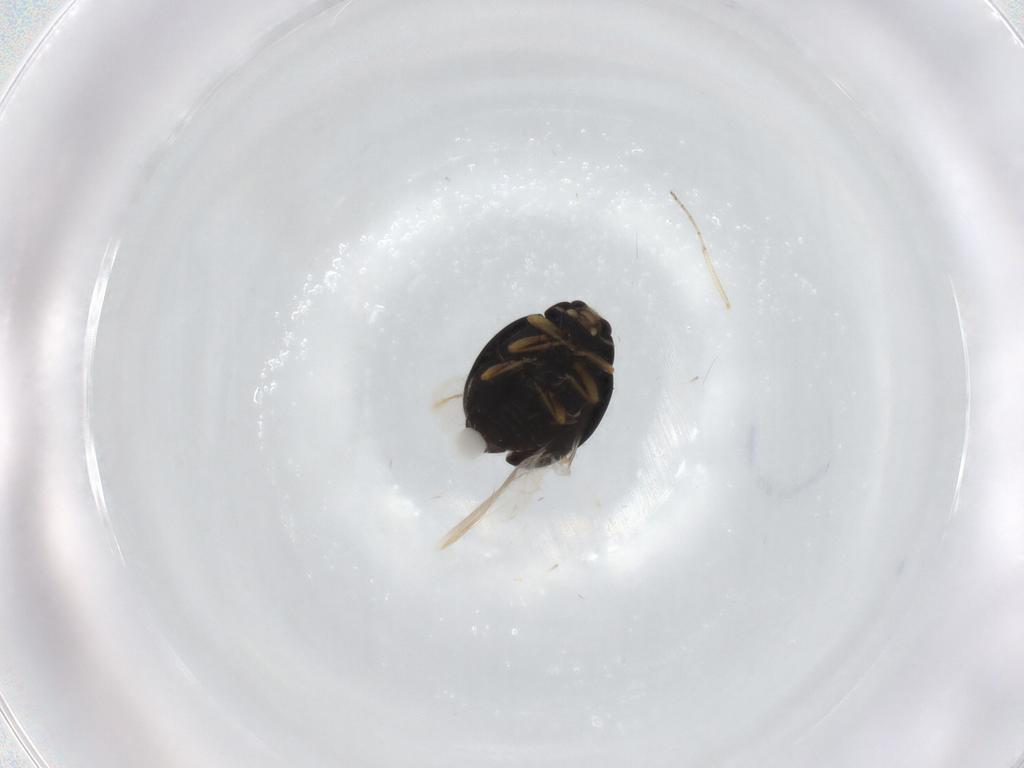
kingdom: Animalia
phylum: Arthropoda
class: Insecta
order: Coleoptera
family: Coccinellidae
